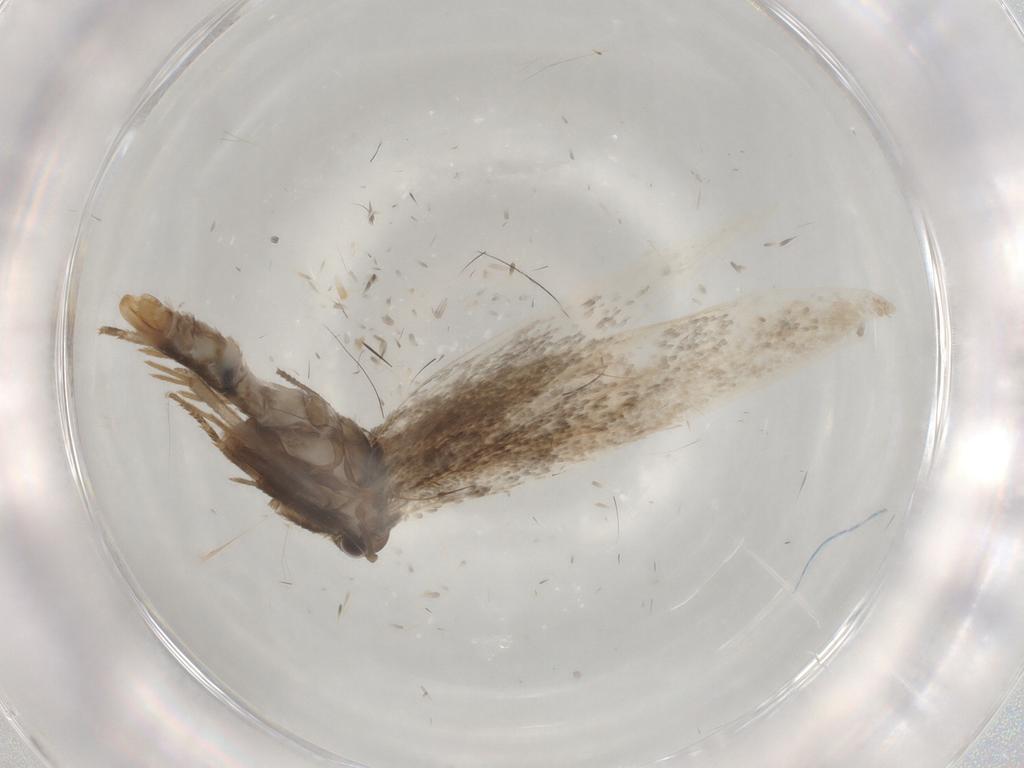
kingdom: Animalia
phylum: Arthropoda
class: Insecta
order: Lepidoptera
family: Elachistidae
